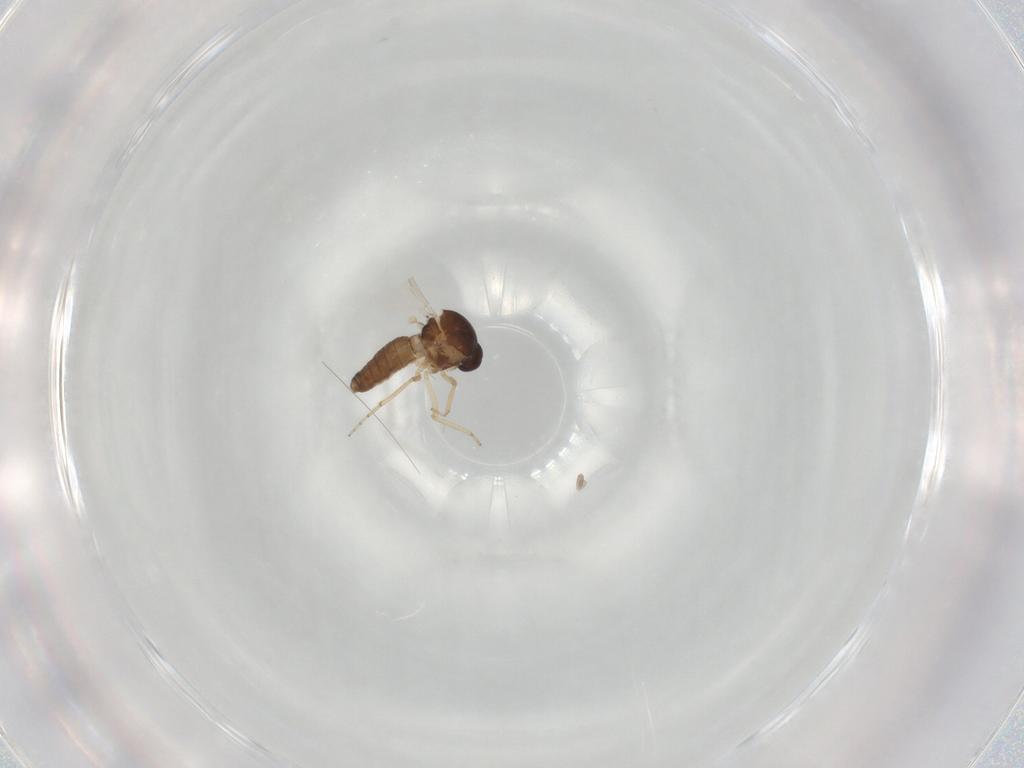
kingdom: Animalia
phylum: Arthropoda
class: Insecta
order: Diptera
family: Ceratopogonidae
